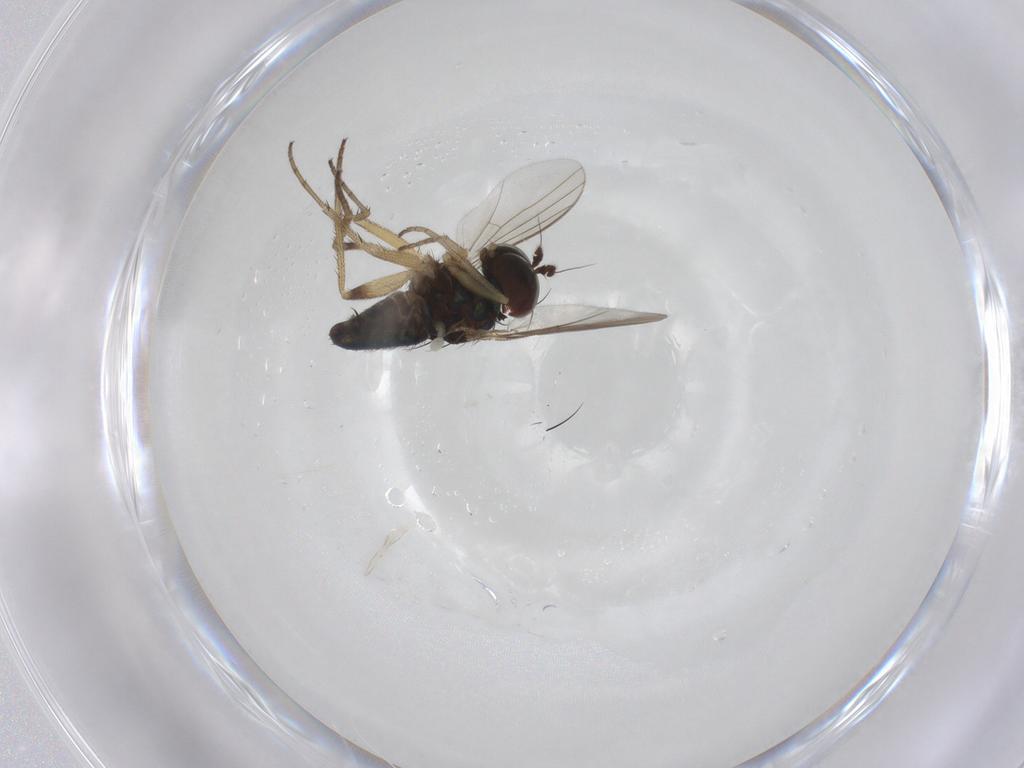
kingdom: Animalia
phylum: Arthropoda
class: Insecta
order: Diptera
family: Dolichopodidae
